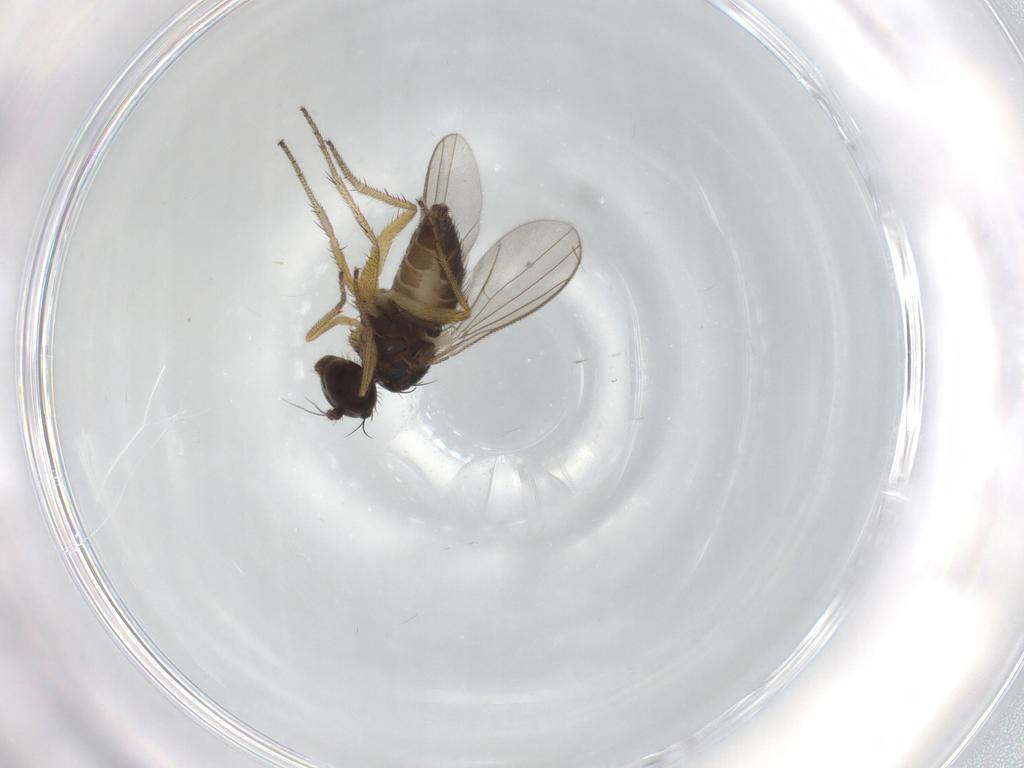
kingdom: Animalia
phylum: Arthropoda
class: Insecta
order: Diptera
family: Dolichopodidae
